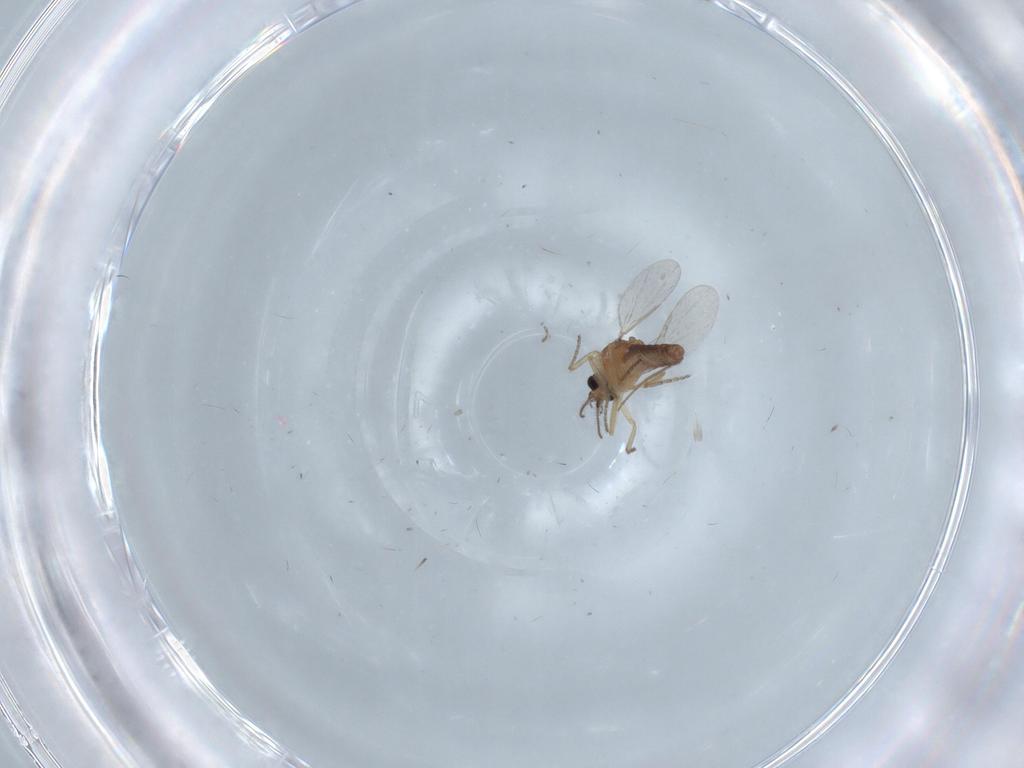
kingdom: Animalia
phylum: Arthropoda
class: Insecta
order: Diptera
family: Ceratopogonidae
